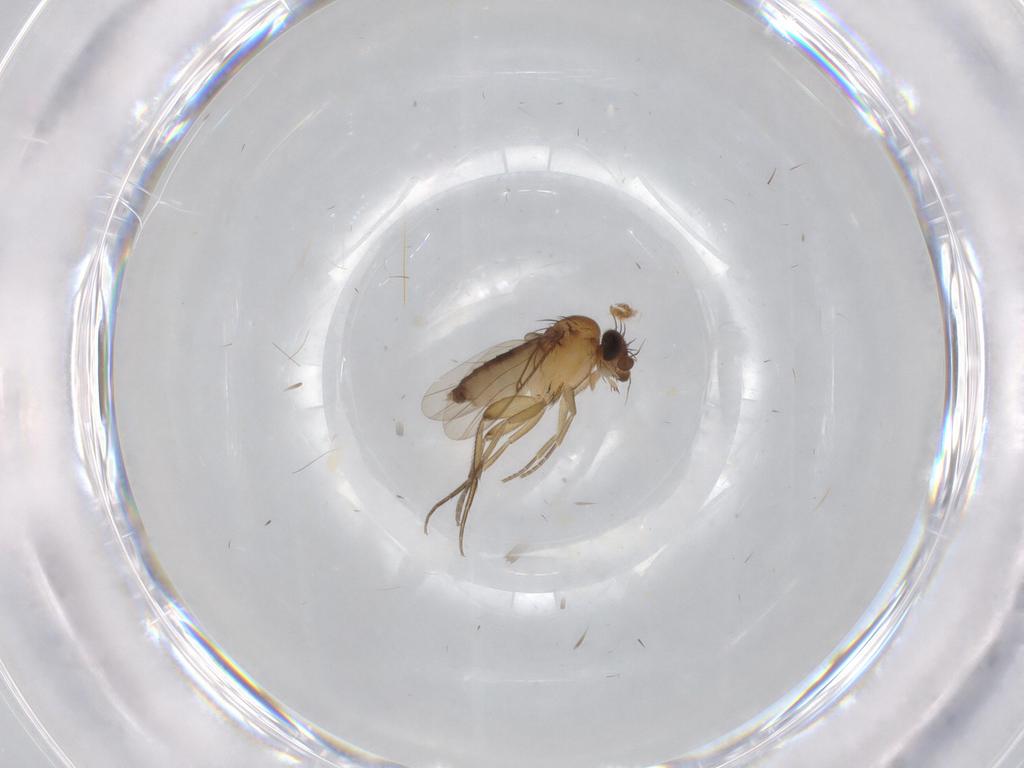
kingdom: Animalia
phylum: Arthropoda
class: Insecta
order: Diptera
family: Phoridae
